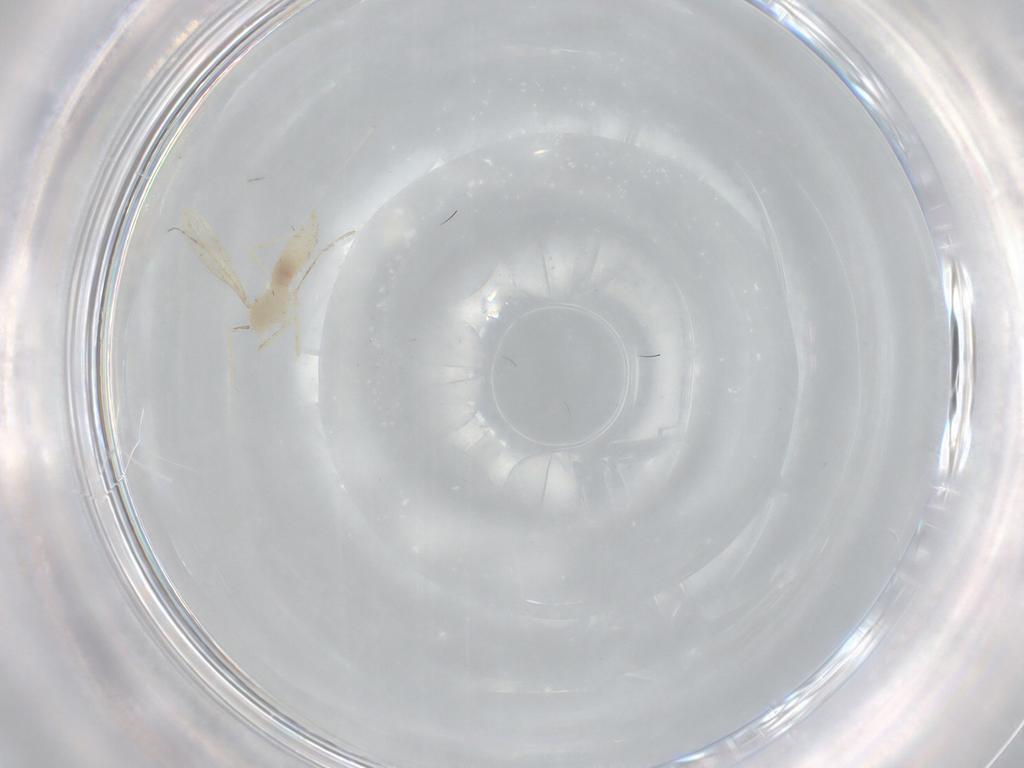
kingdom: Animalia
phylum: Arthropoda
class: Insecta
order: Diptera
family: Cecidomyiidae
